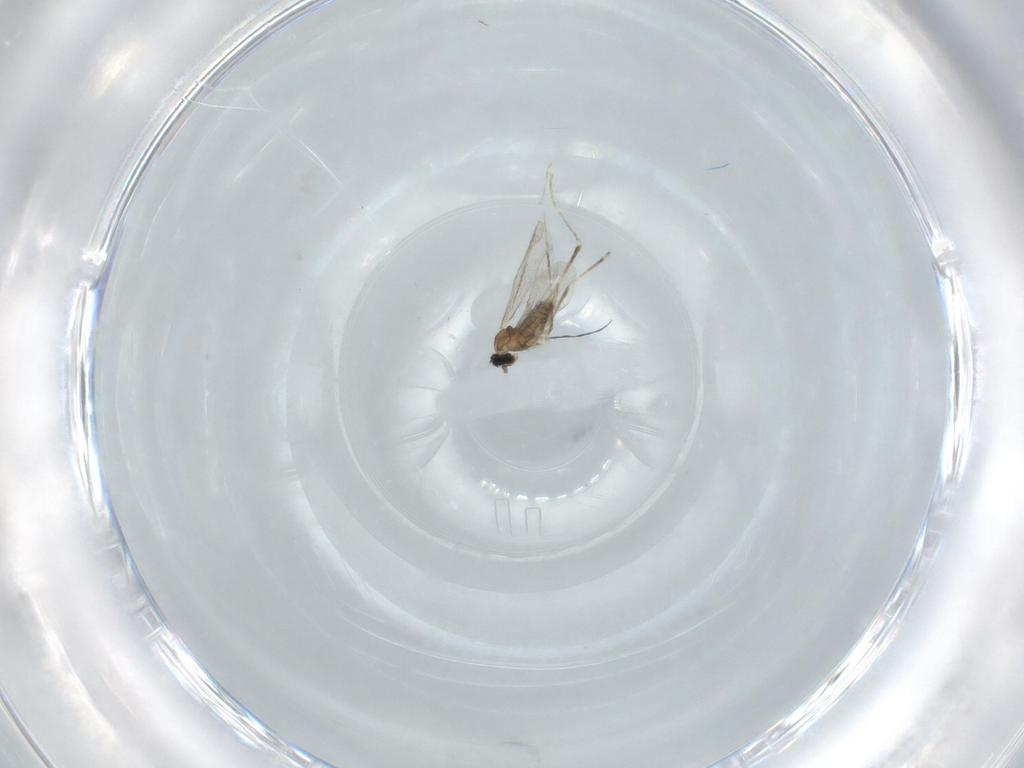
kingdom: Animalia
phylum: Arthropoda
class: Insecta
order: Diptera
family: Cecidomyiidae
